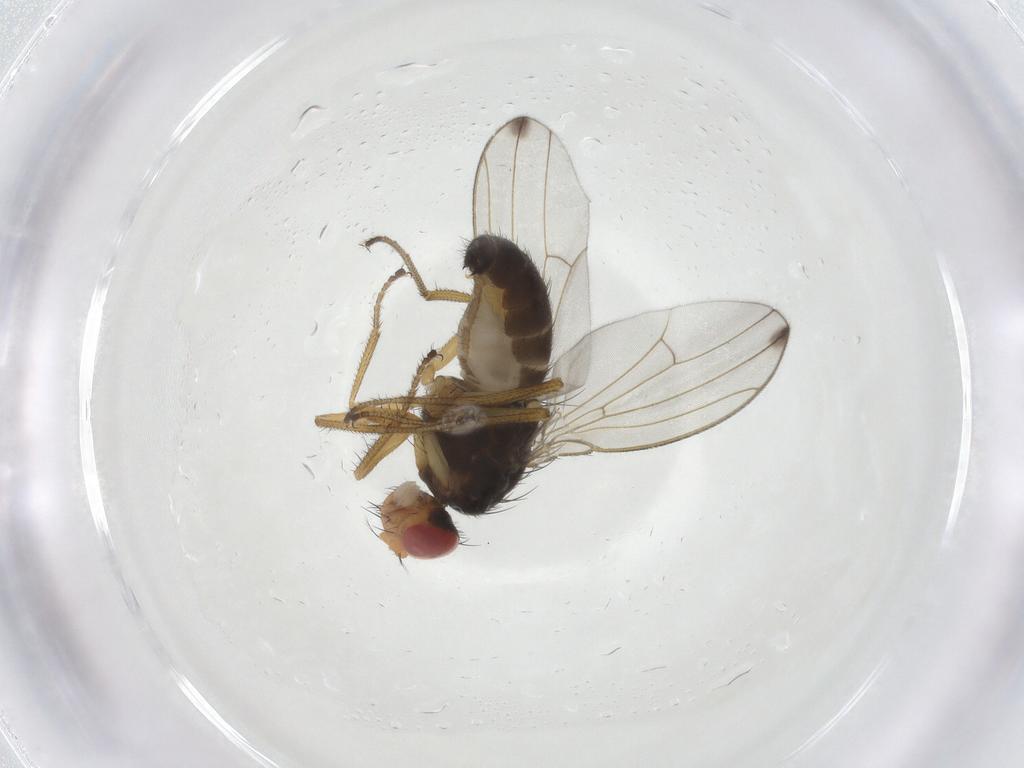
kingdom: Animalia
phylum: Arthropoda
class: Insecta
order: Diptera
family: Drosophilidae
